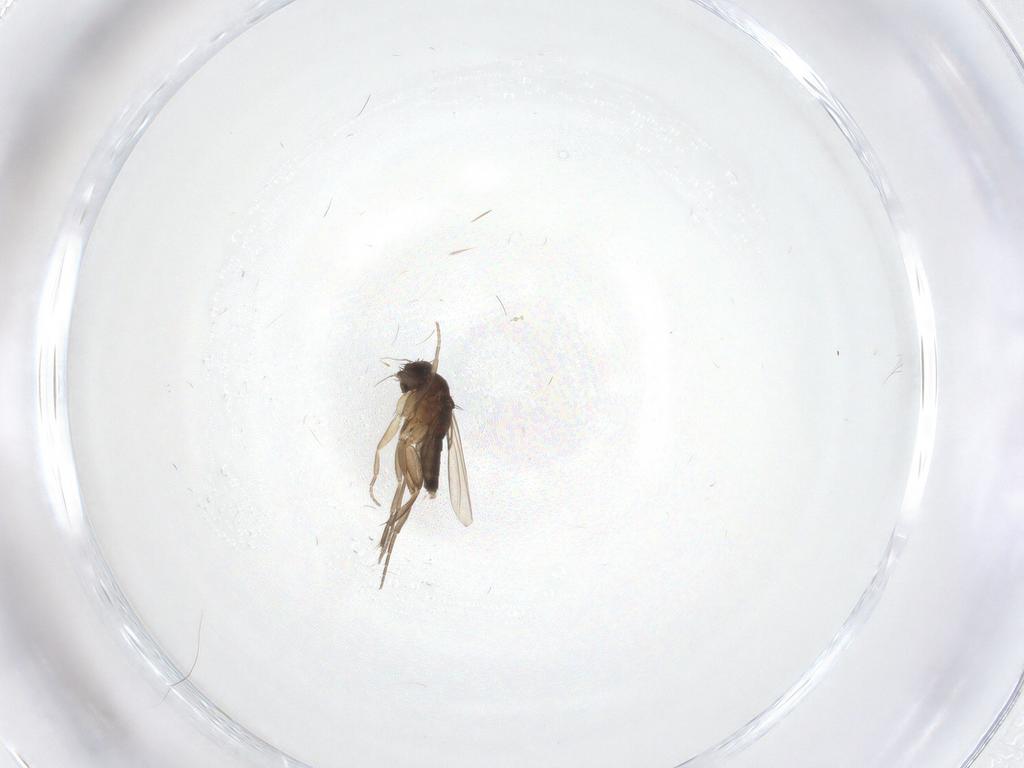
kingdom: Animalia
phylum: Arthropoda
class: Insecta
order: Diptera
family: Phoridae
